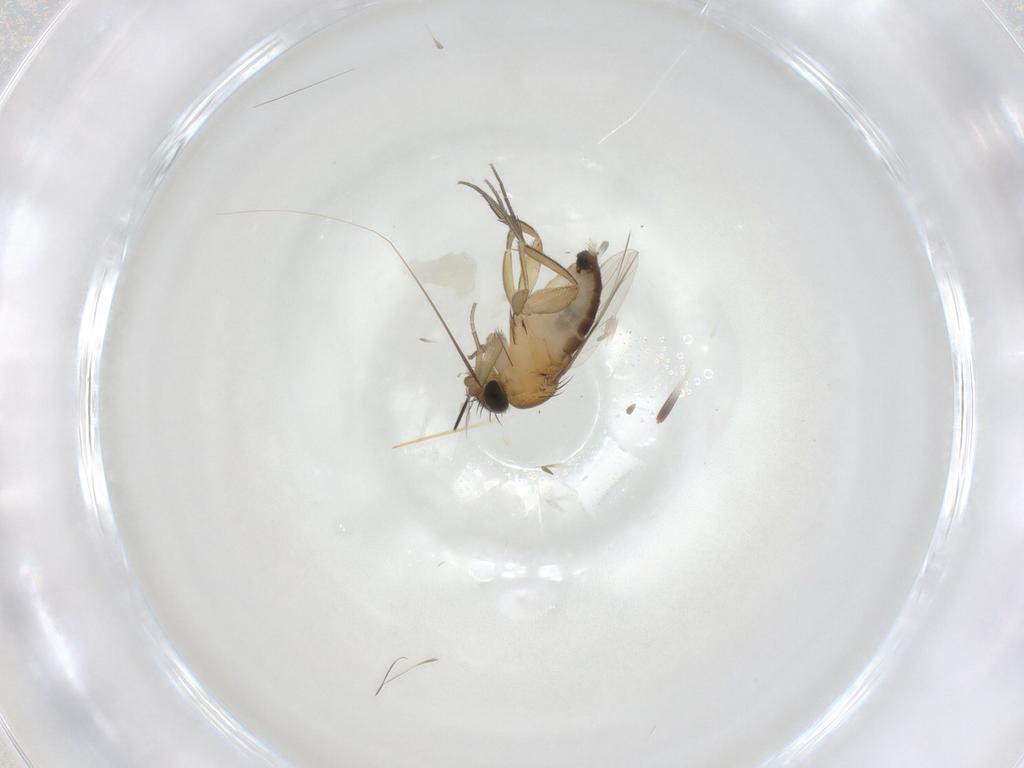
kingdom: Animalia
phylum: Arthropoda
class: Insecta
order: Diptera
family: Phoridae
